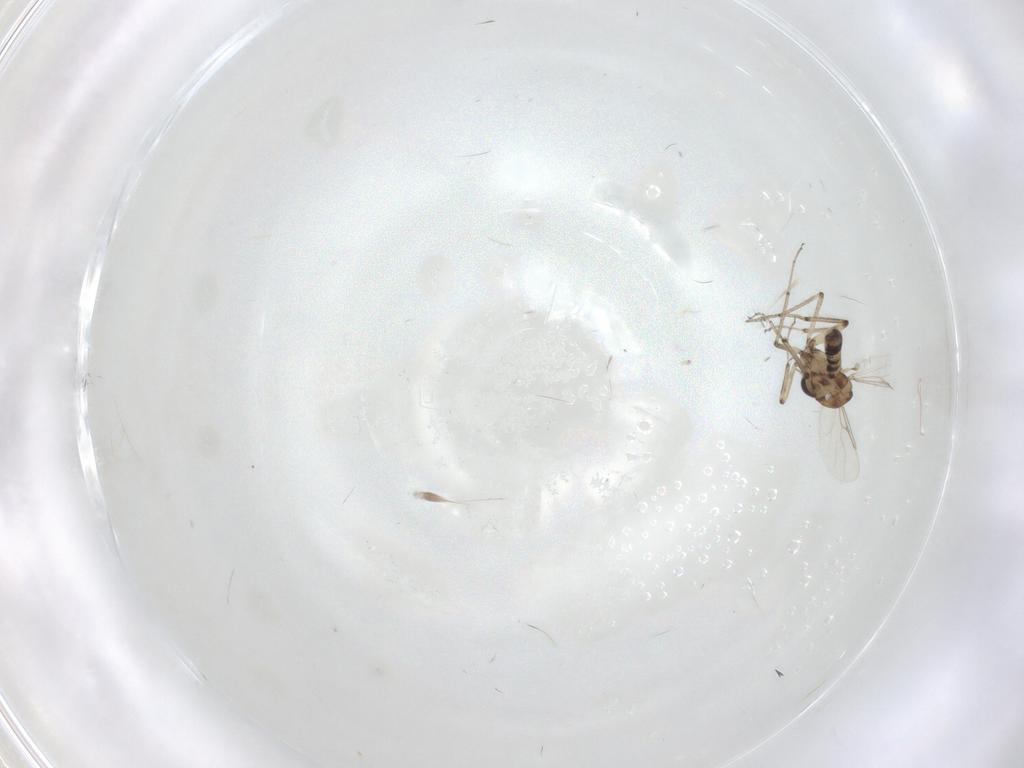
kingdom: Animalia
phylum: Arthropoda
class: Insecta
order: Diptera
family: Ceratopogonidae
